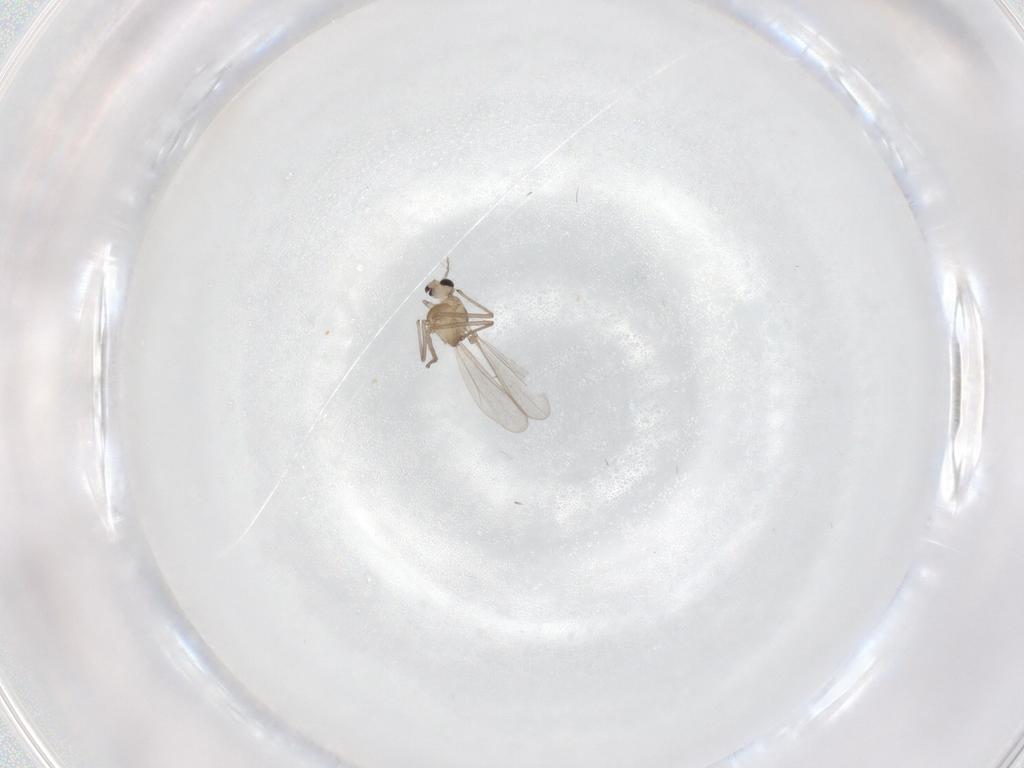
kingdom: Animalia
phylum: Arthropoda
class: Insecta
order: Diptera
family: Chironomidae
